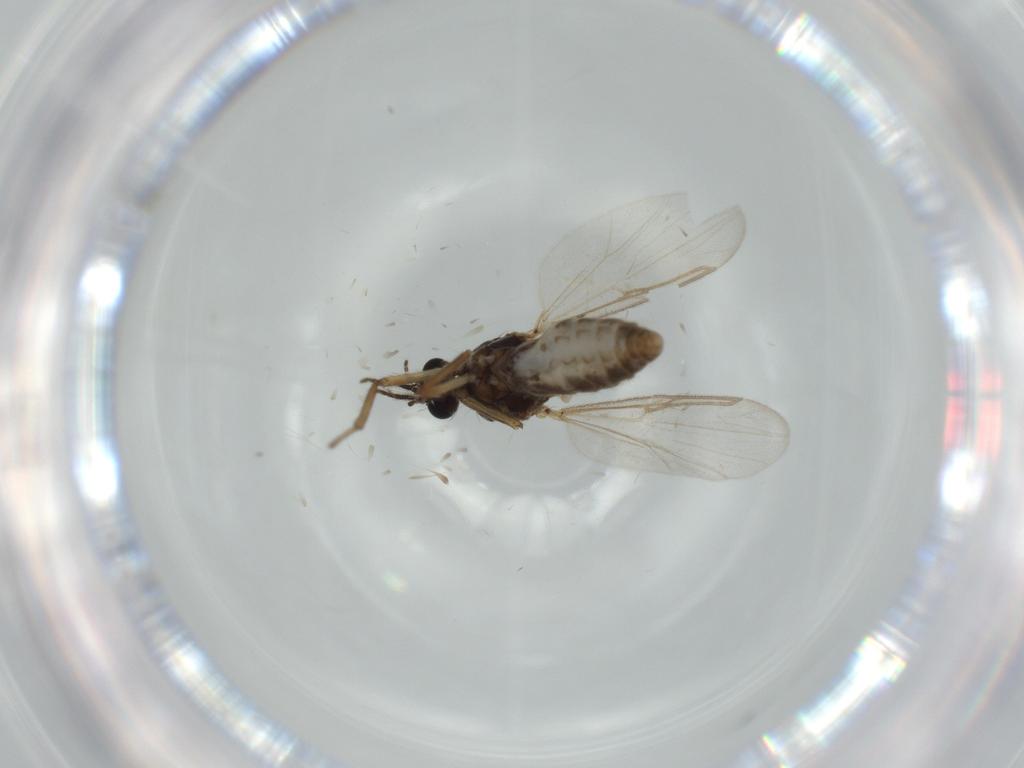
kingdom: Animalia
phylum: Arthropoda
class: Insecta
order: Diptera
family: Ceratopogonidae
